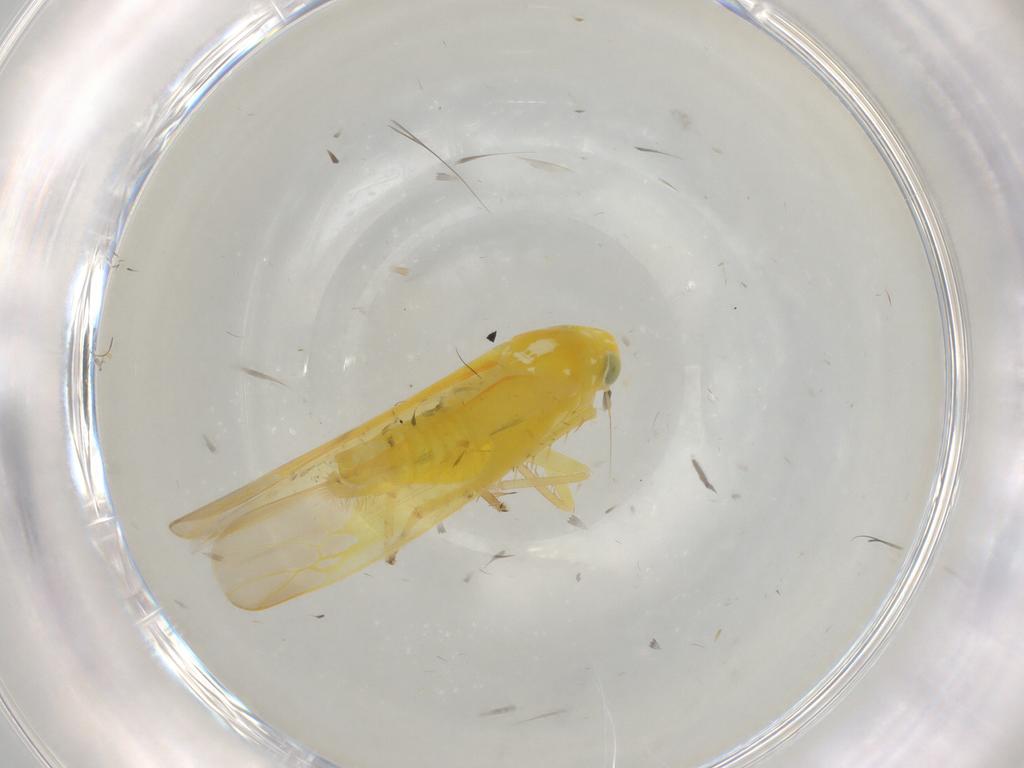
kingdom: Animalia
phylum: Arthropoda
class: Insecta
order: Hemiptera
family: Cicadellidae
